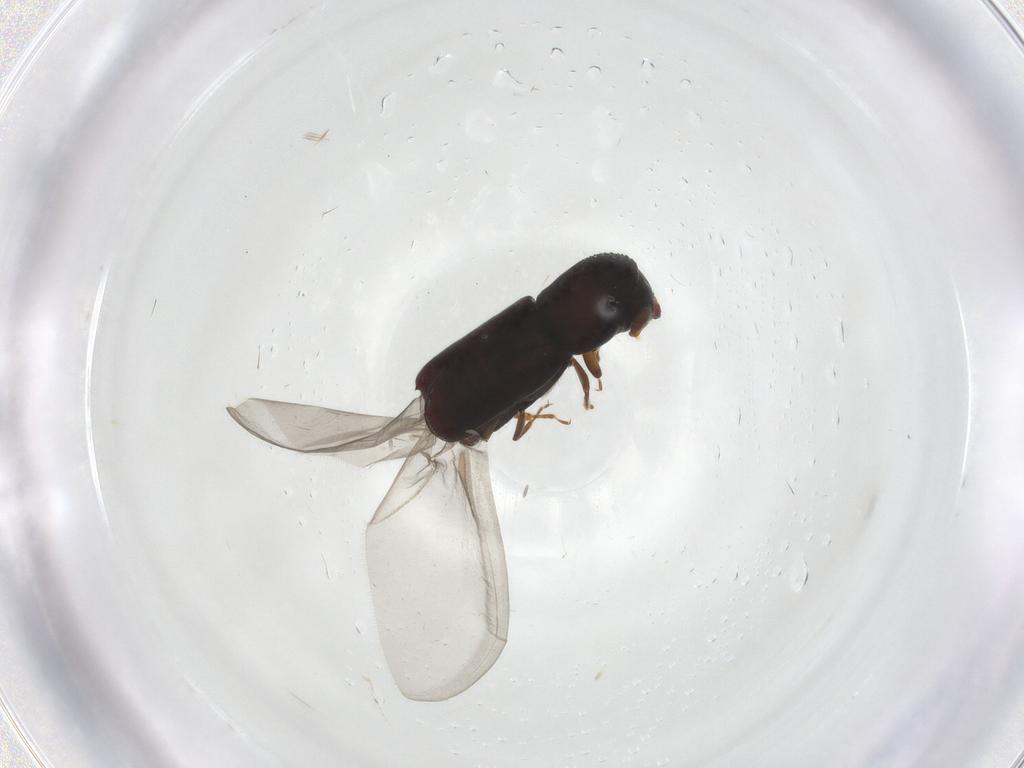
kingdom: Animalia
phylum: Arthropoda
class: Insecta
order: Coleoptera
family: Curculionidae
